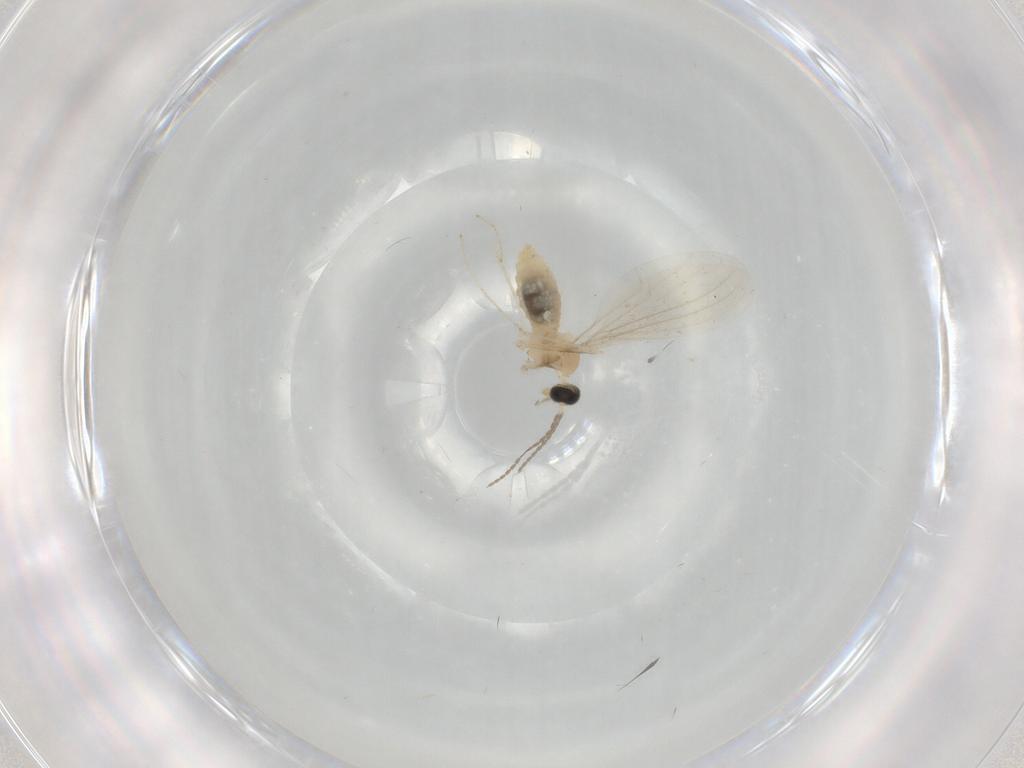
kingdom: Animalia
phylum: Arthropoda
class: Insecta
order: Diptera
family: Cecidomyiidae
